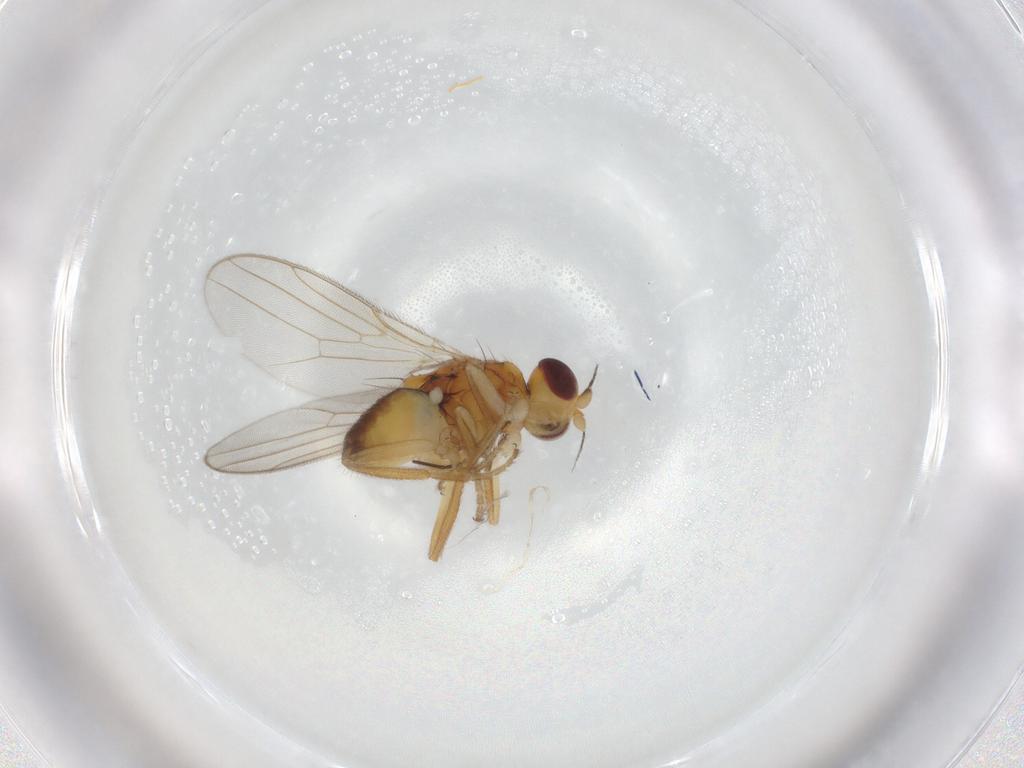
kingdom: Animalia
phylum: Arthropoda
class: Insecta
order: Diptera
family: Chloropidae
